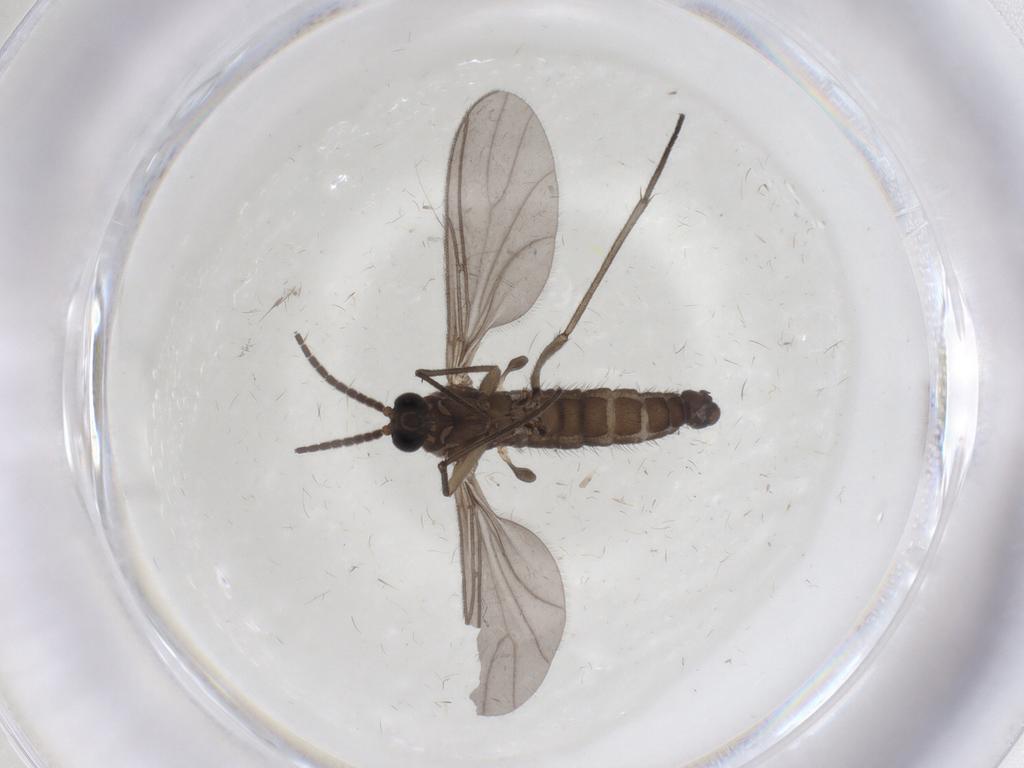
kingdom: Animalia
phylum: Arthropoda
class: Insecta
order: Diptera
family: Sciaridae
